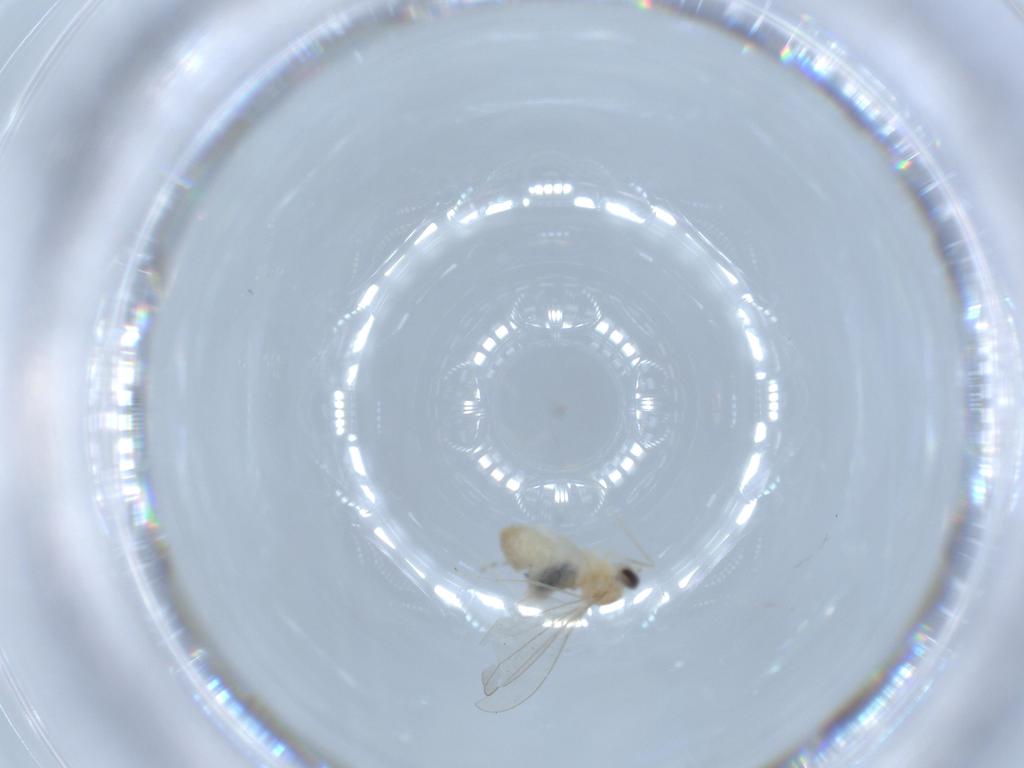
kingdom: Animalia
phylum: Arthropoda
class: Insecta
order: Diptera
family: Cecidomyiidae
